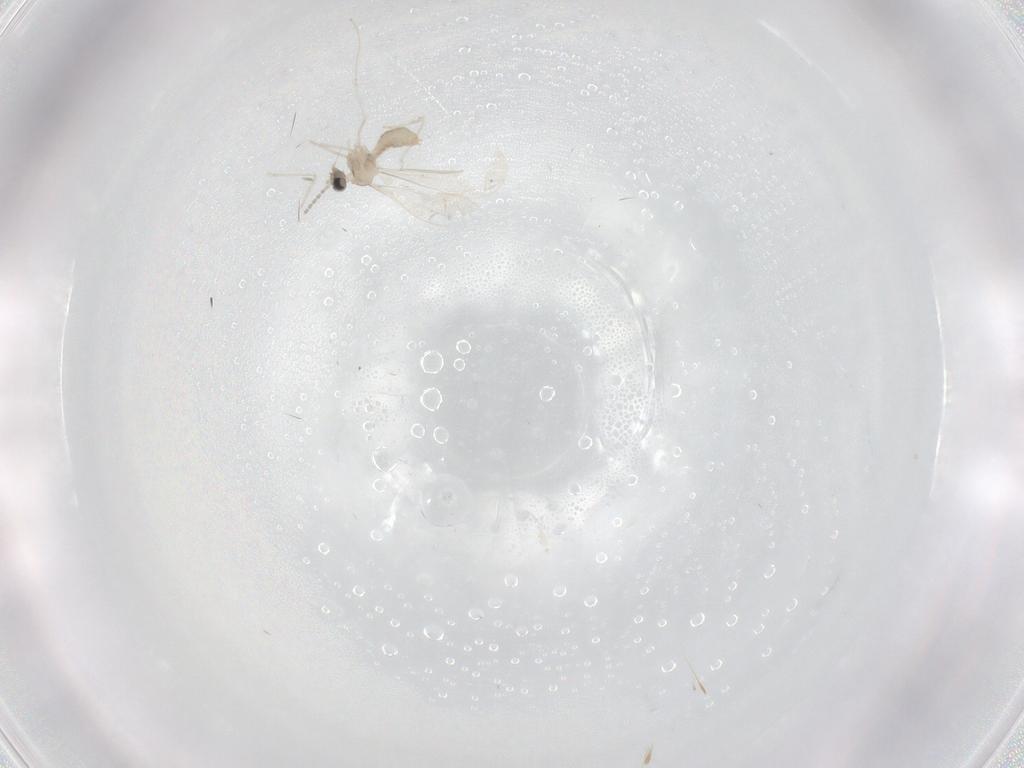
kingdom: Animalia
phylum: Arthropoda
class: Insecta
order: Diptera
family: Cecidomyiidae
